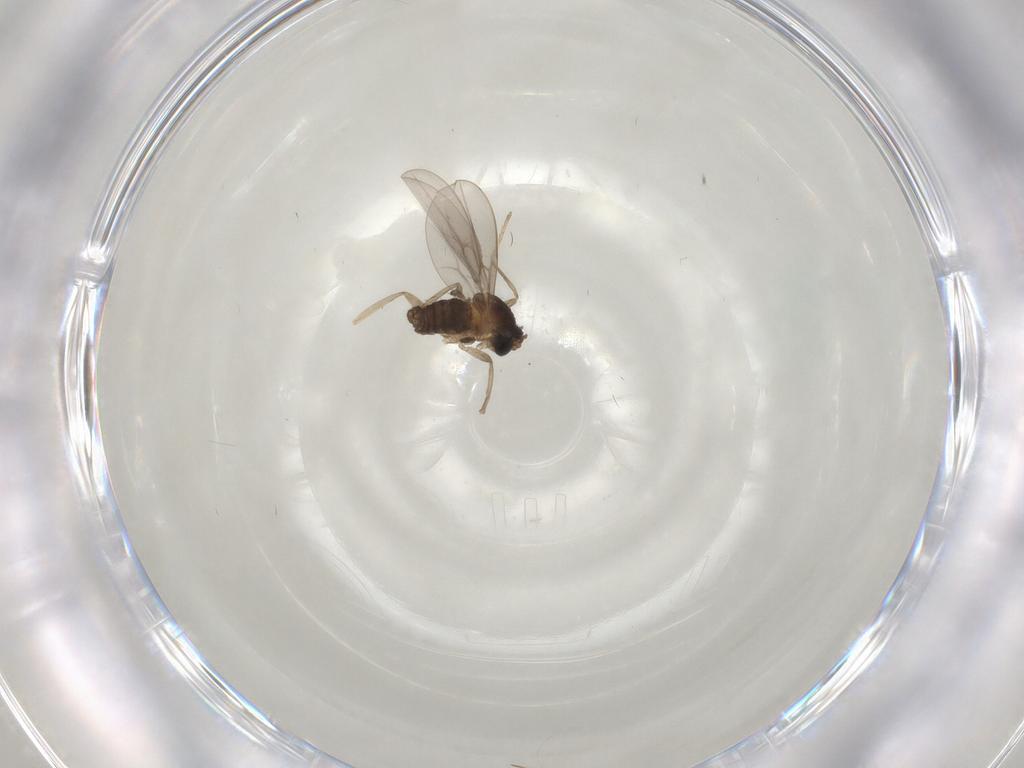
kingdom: Animalia
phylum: Arthropoda
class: Insecta
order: Diptera
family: Cecidomyiidae
